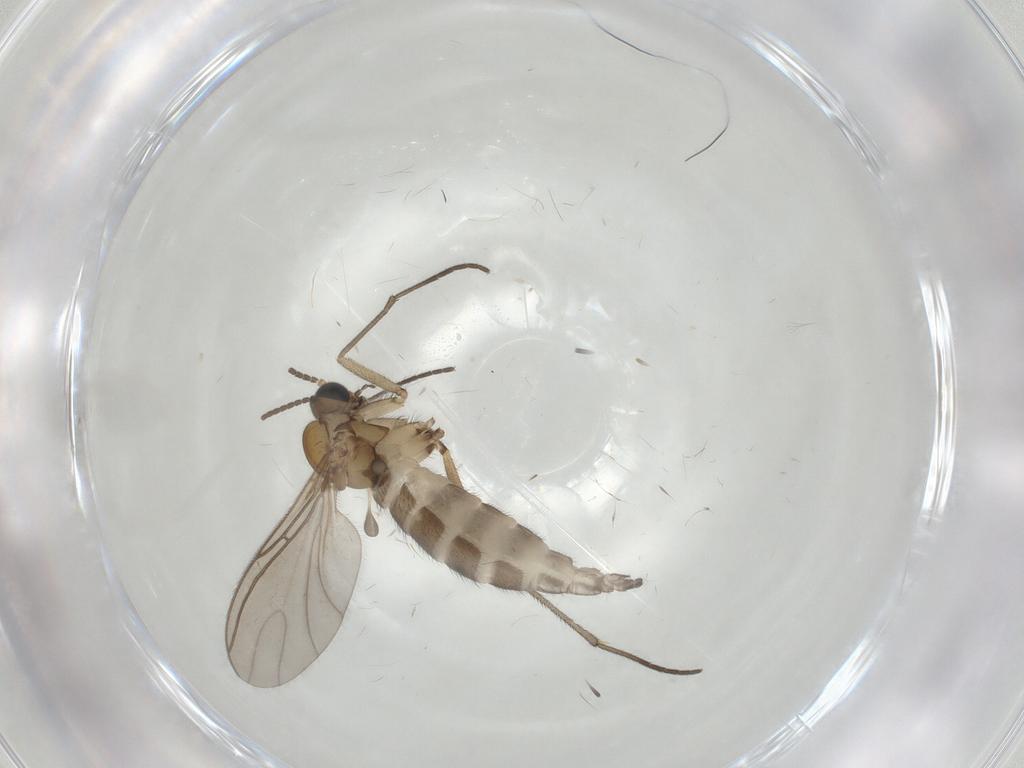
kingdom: Animalia
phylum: Arthropoda
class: Insecta
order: Diptera
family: Sciaridae
